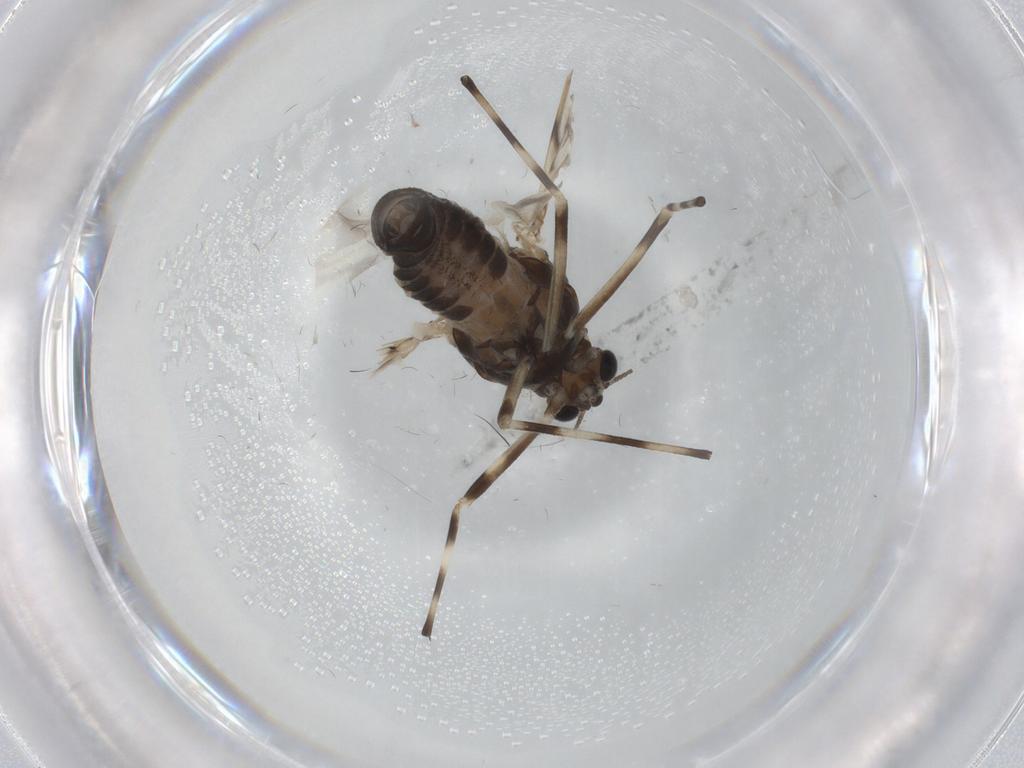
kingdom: Animalia
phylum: Arthropoda
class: Insecta
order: Diptera
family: Chironomidae
